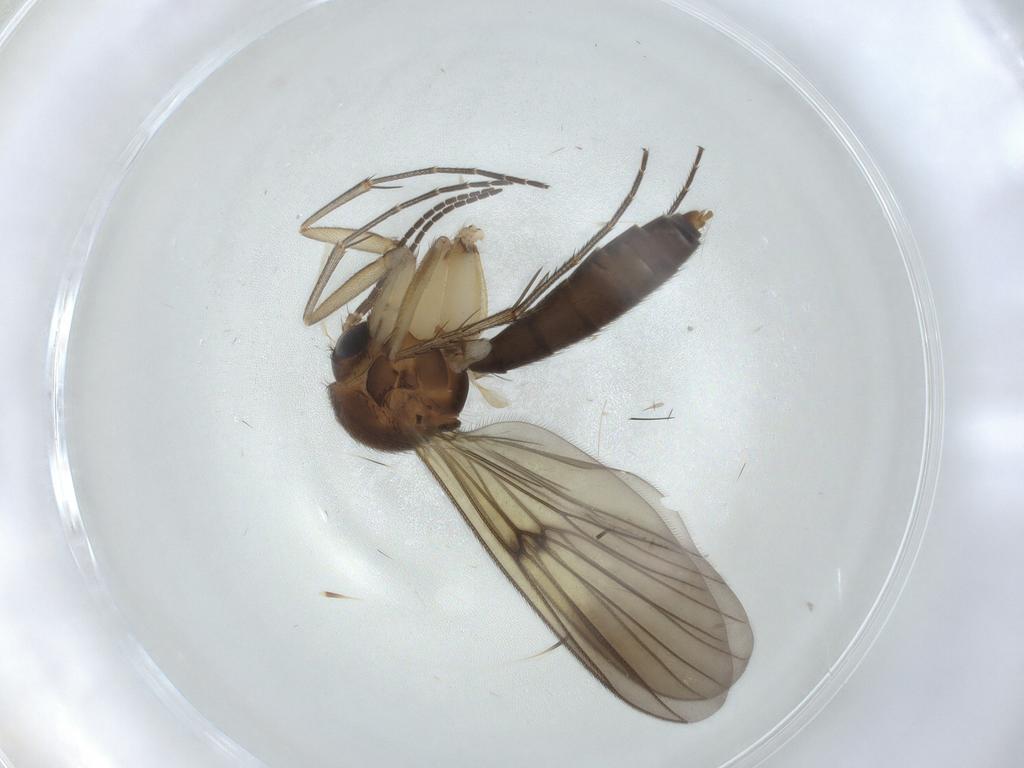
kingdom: Animalia
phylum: Arthropoda
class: Insecta
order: Diptera
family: Mycetophilidae
